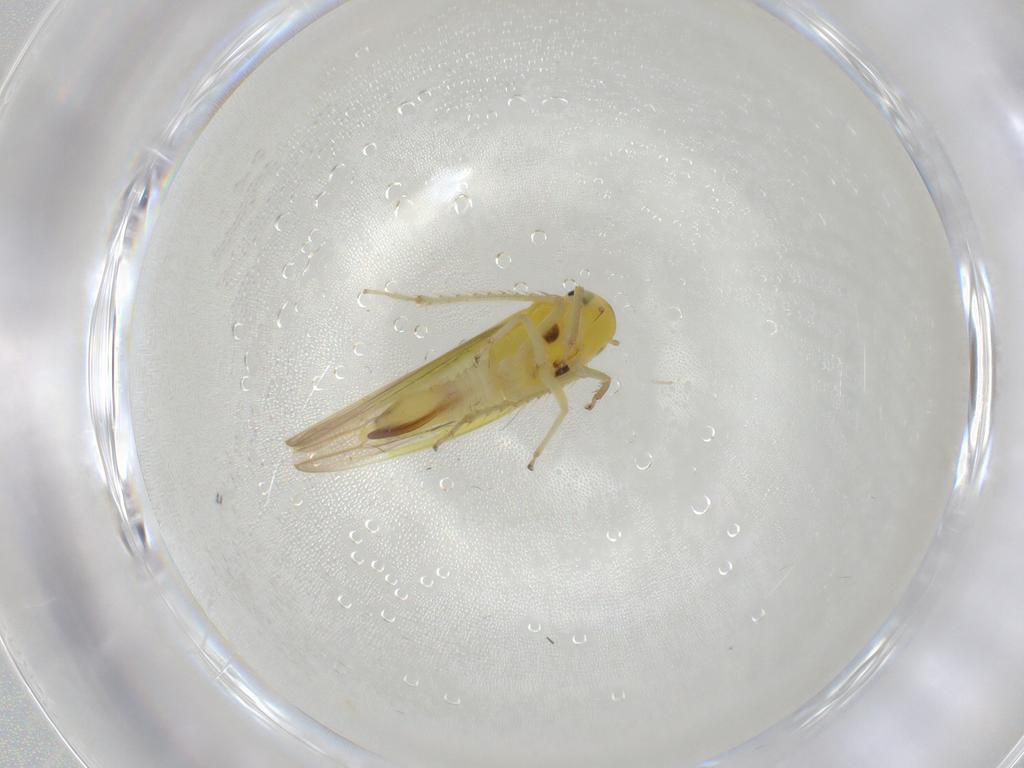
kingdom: Animalia
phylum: Arthropoda
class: Insecta
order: Hemiptera
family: Cicadellidae
